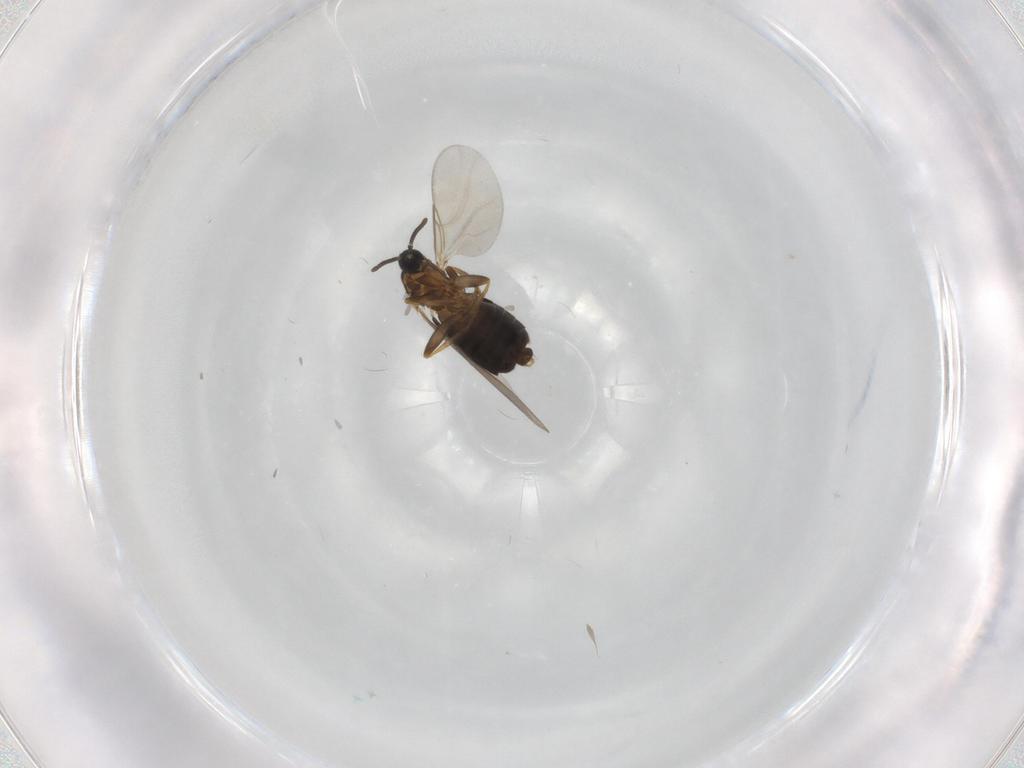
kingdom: Animalia
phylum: Arthropoda
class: Insecta
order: Diptera
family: Scatopsidae
